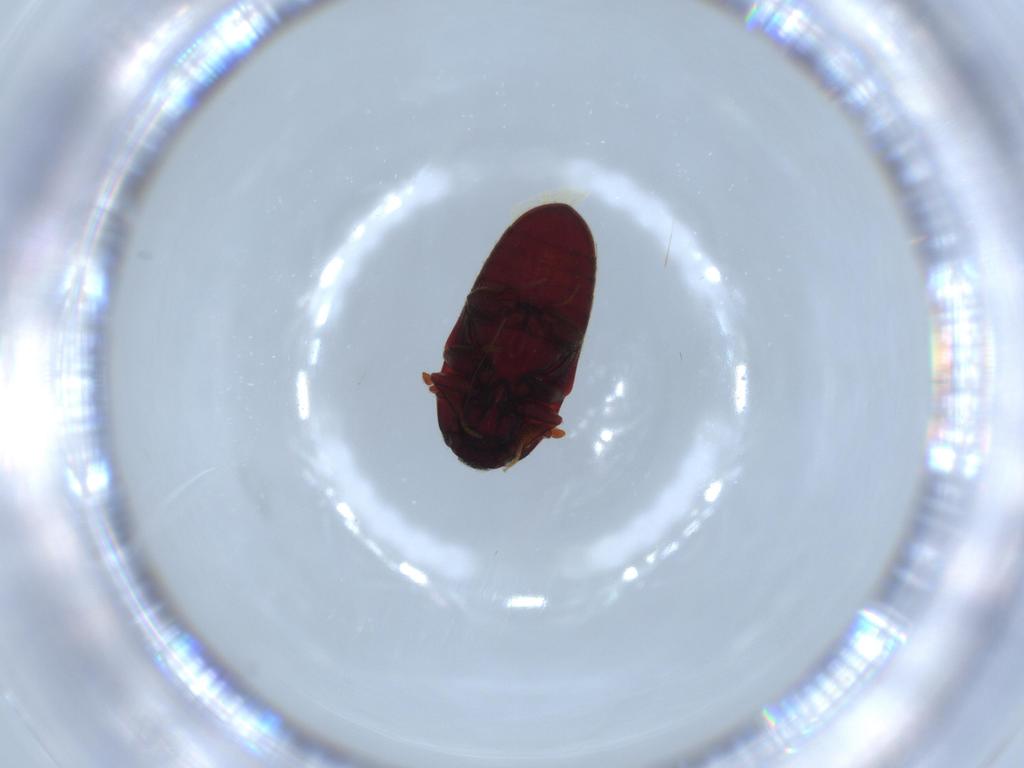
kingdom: Animalia
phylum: Arthropoda
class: Insecta
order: Coleoptera
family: Throscidae
